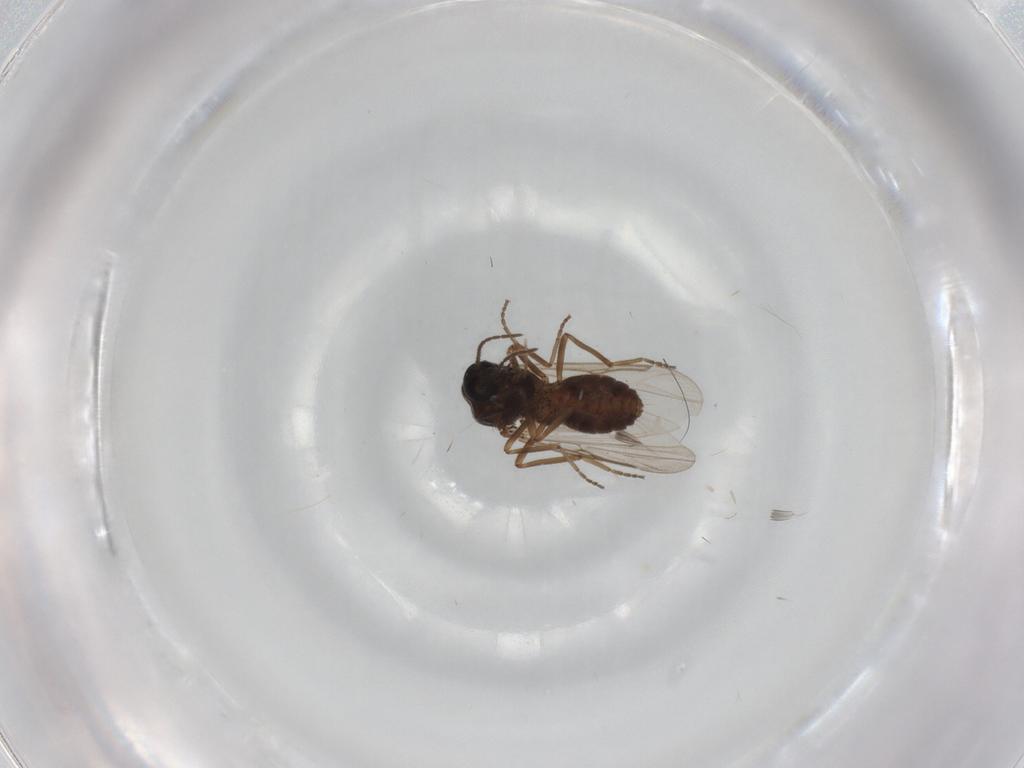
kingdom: Animalia
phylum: Arthropoda
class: Insecta
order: Diptera
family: Ceratopogonidae
